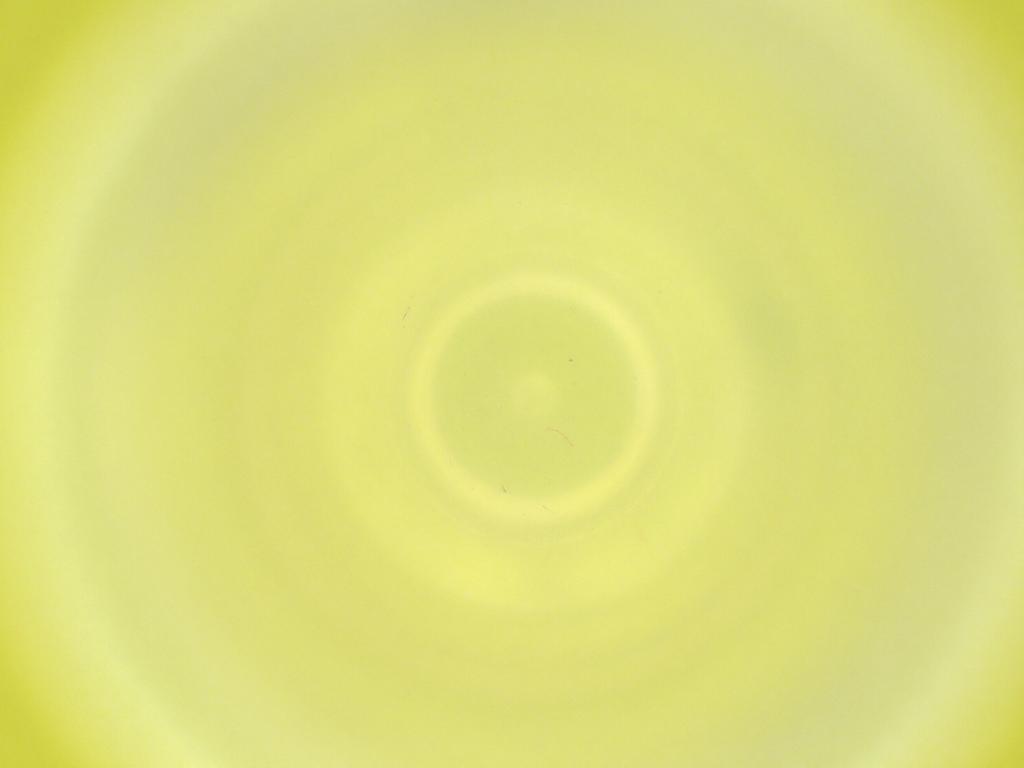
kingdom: Animalia
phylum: Arthropoda
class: Insecta
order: Diptera
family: Cecidomyiidae
